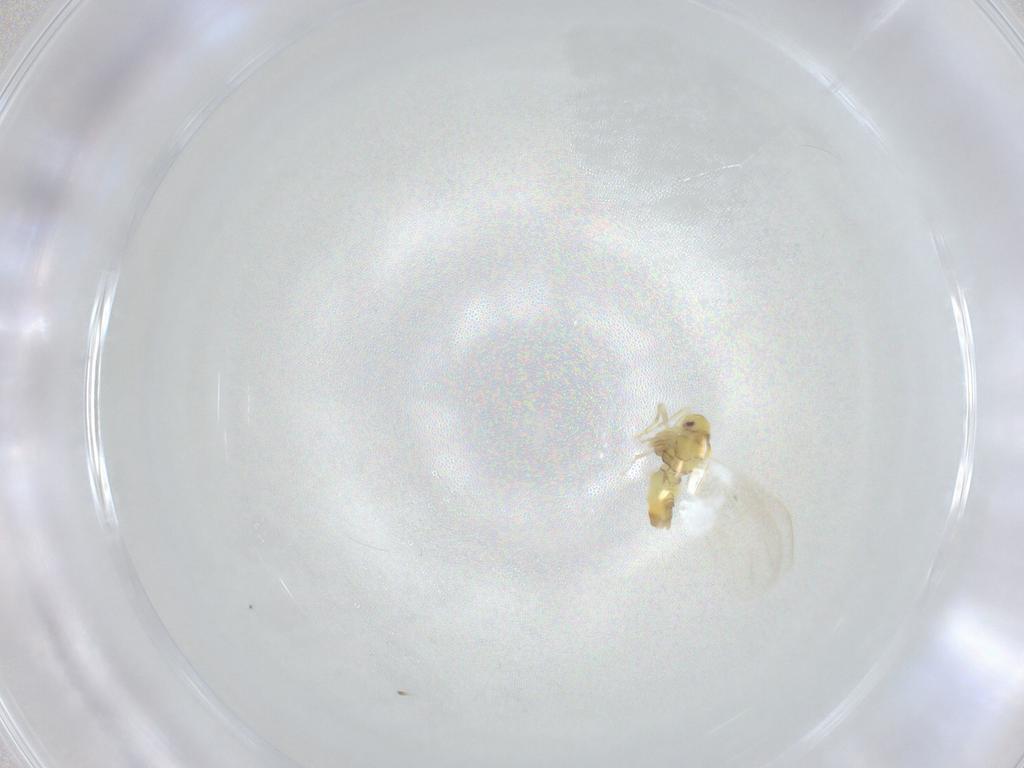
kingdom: Animalia
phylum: Arthropoda
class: Insecta
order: Hemiptera
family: Aleyrodidae
